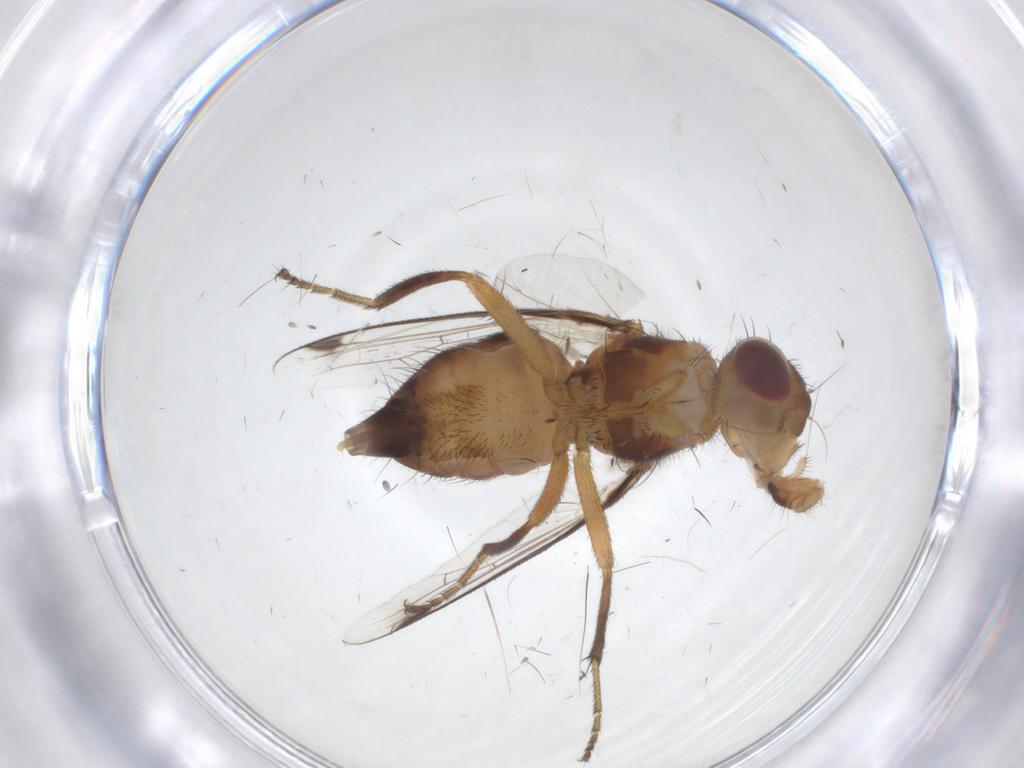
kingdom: Animalia
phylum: Arthropoda
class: Insecta
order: Diptera
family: Richardiidae
